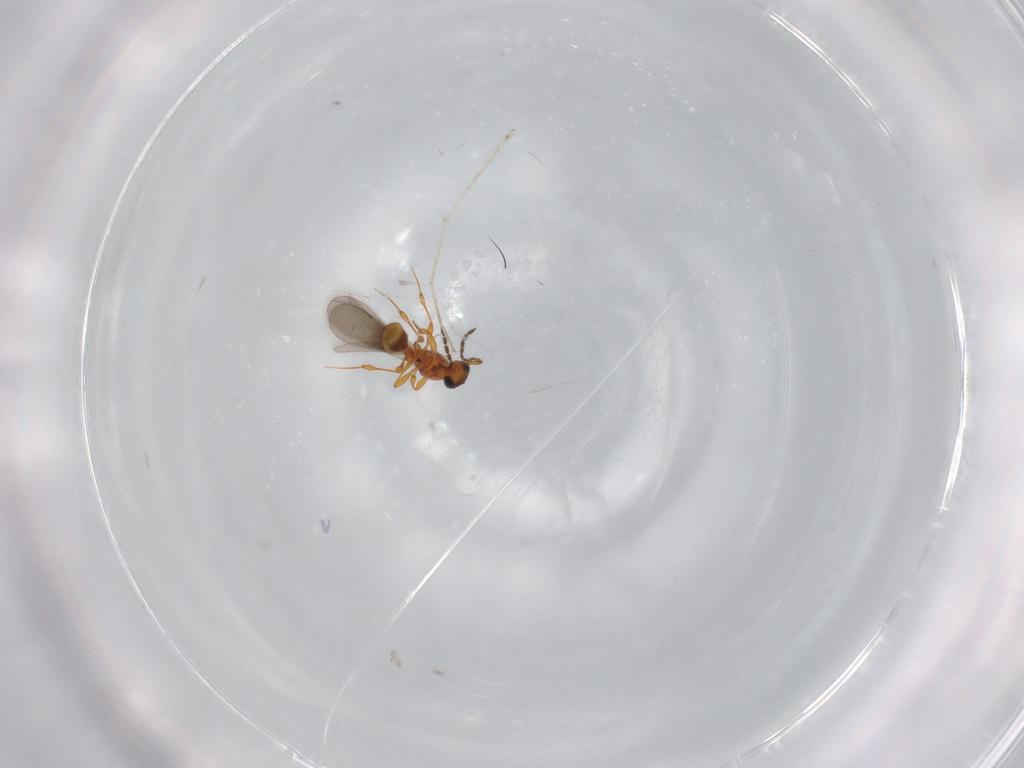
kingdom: Animalia
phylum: Arthropoda
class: Insecta
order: Hymenoptera
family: Platygastridae
